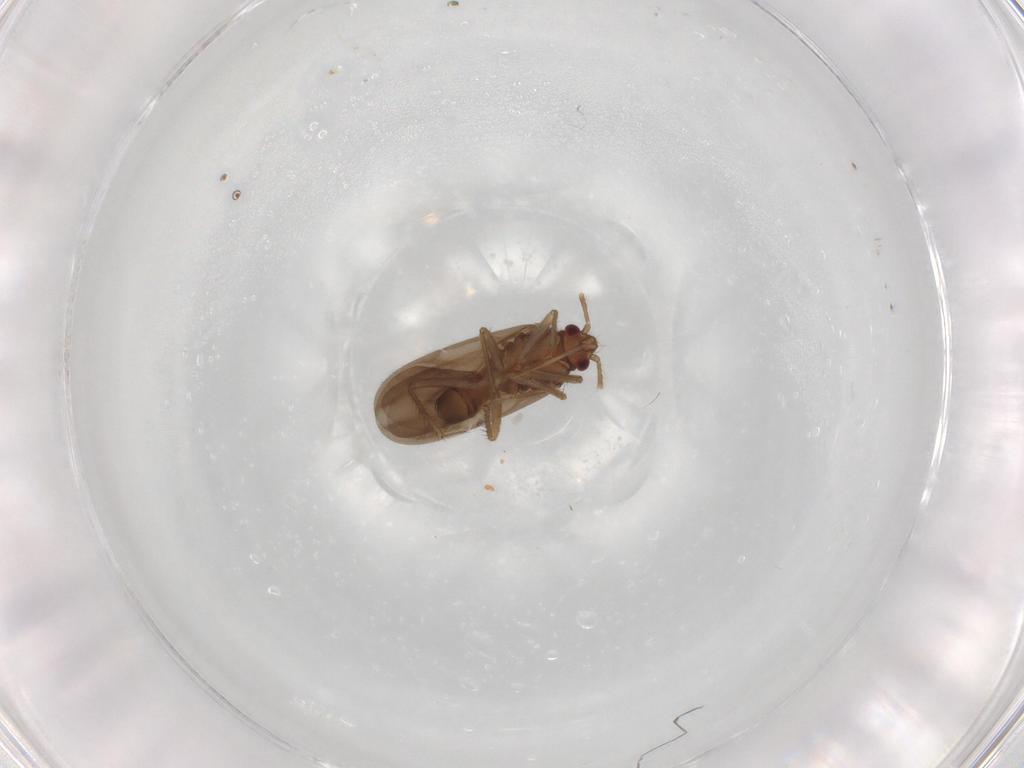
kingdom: Animalia
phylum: Arthropoda
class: Insecta
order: Hemiptera
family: Ceratocombidae
